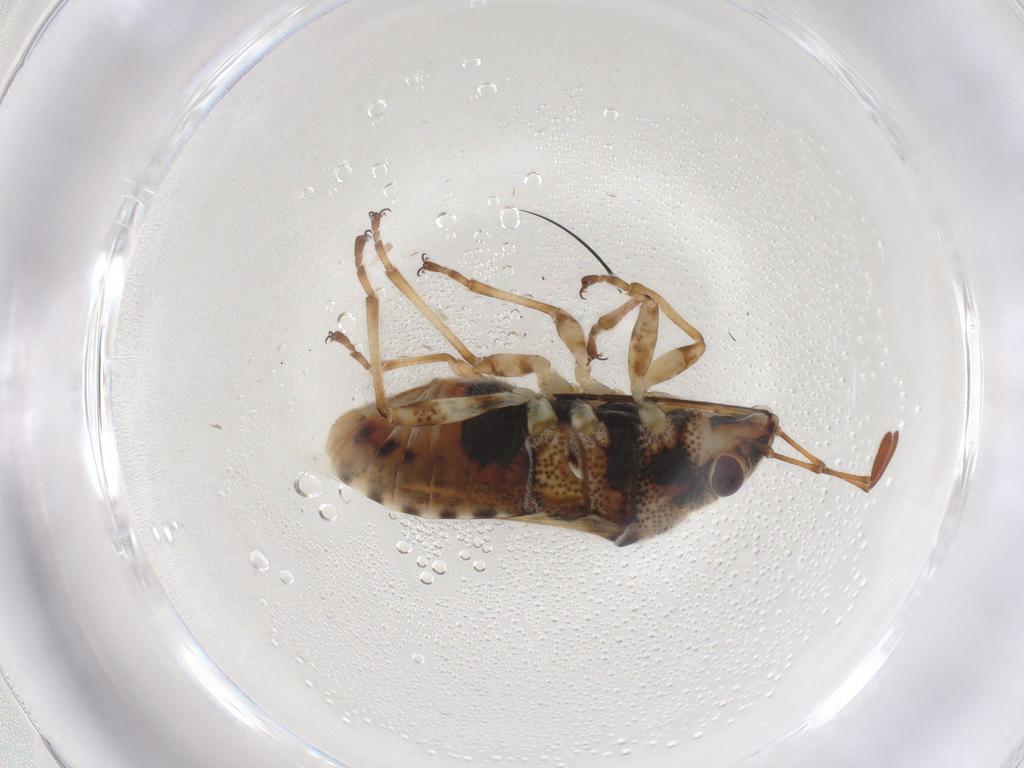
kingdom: Animalia
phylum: Arthropoda
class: Insecta
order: Hemiptera
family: Lygaeidae
